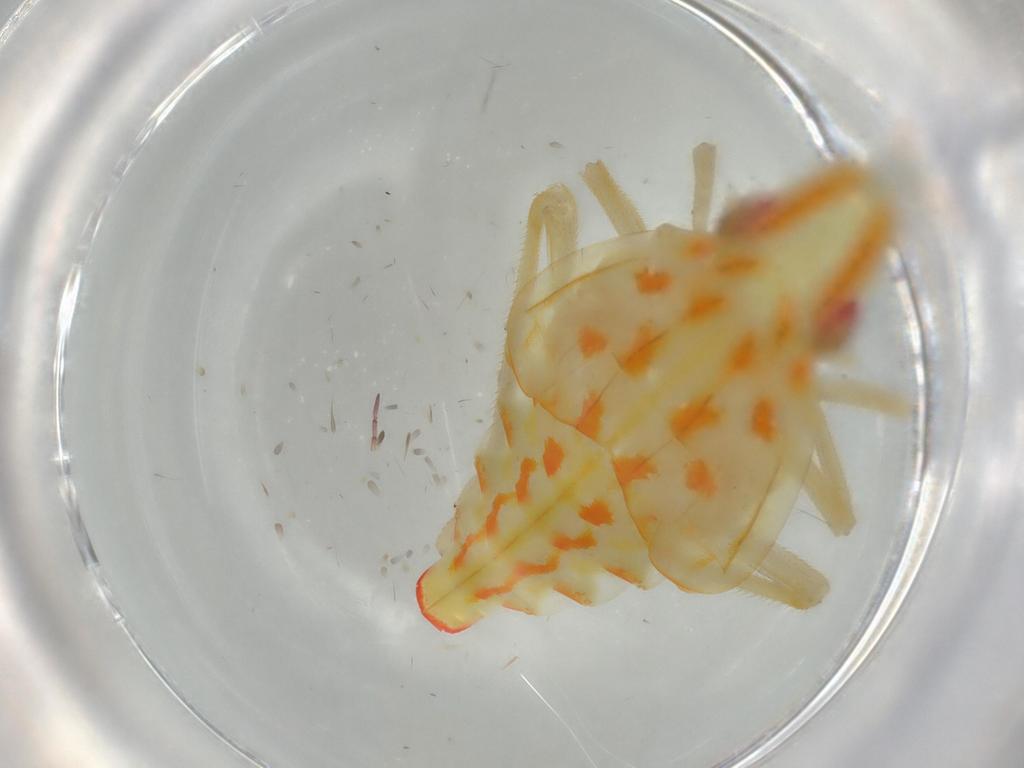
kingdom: Animalia
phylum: Arthropoda
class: Insecta
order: Hemiptera
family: Tropiduchidae
